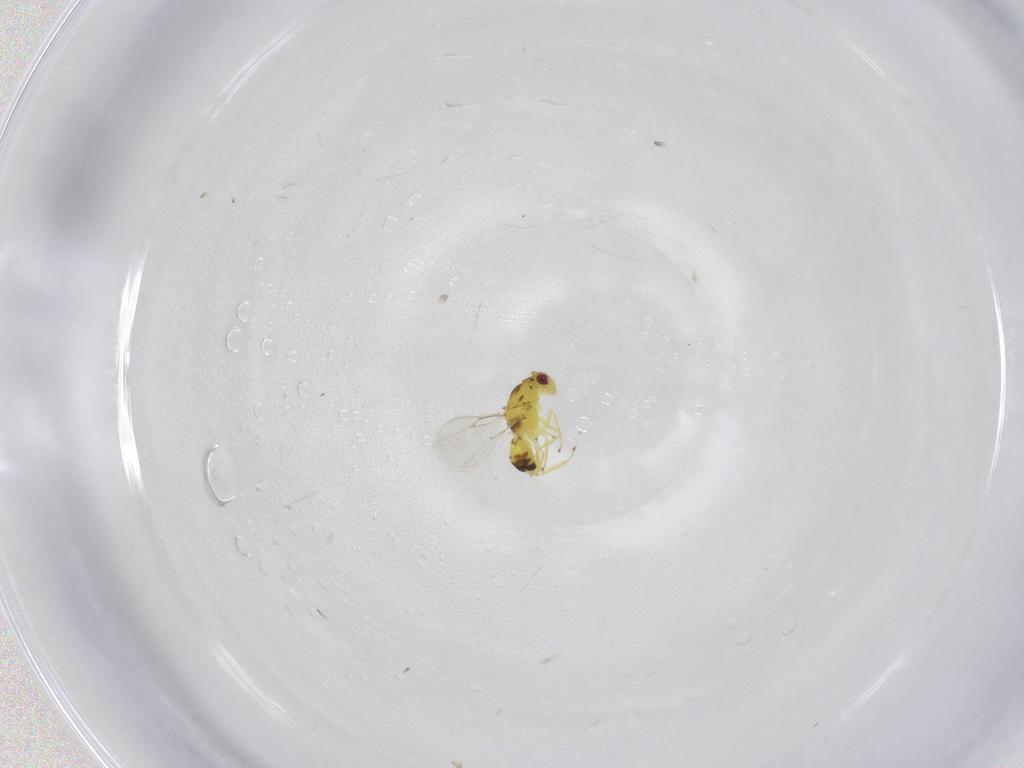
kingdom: Animalia
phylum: Arthropoda
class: Insecta
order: Hymenoptera
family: Eulophidae
